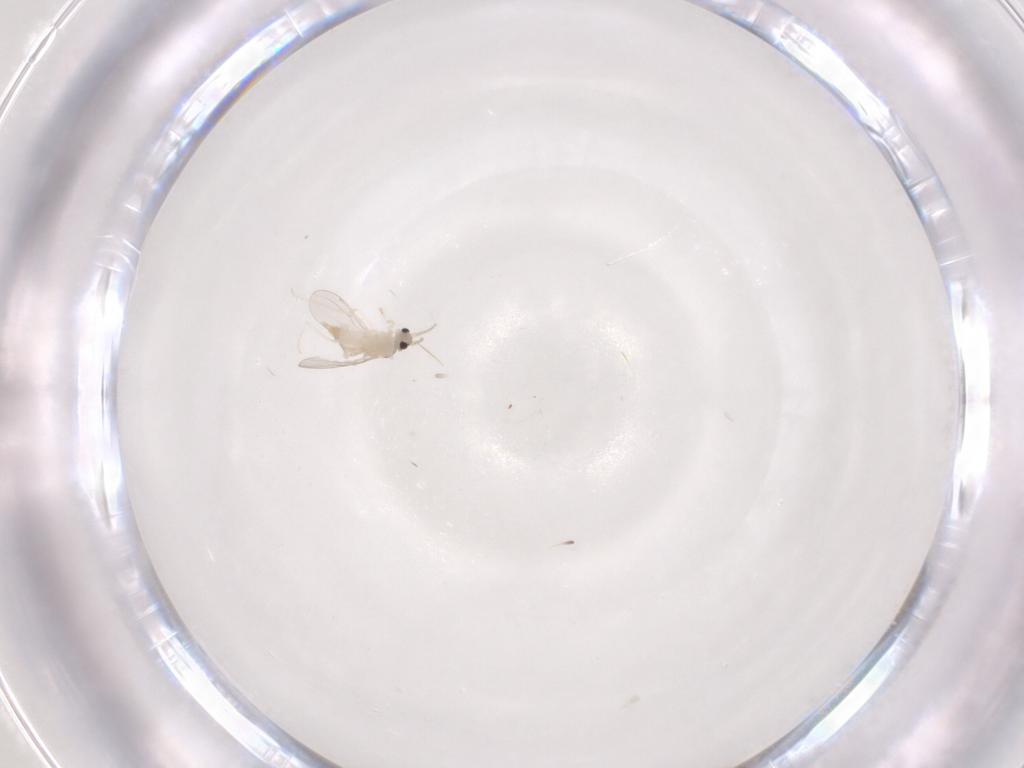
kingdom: Animalia
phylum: Arthropoda
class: Insecta
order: Diptera
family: Cecidomyiidae
